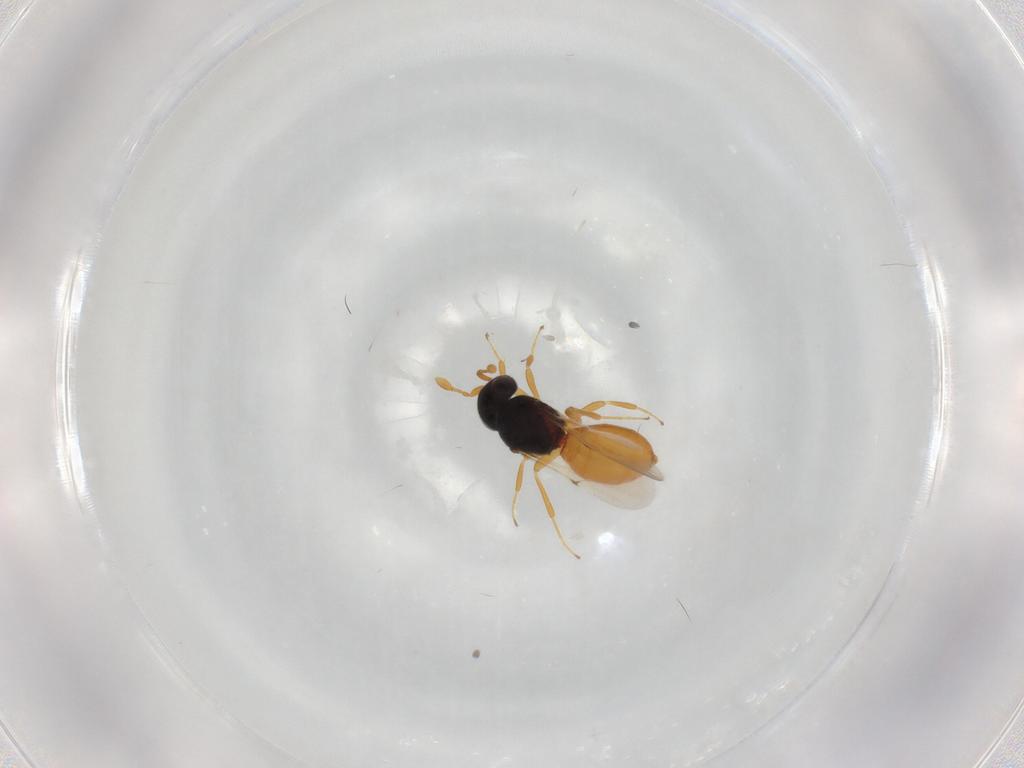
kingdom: Animalia
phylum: Arthropoda
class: Insecta
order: Hymenoptera
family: Scelionidae
